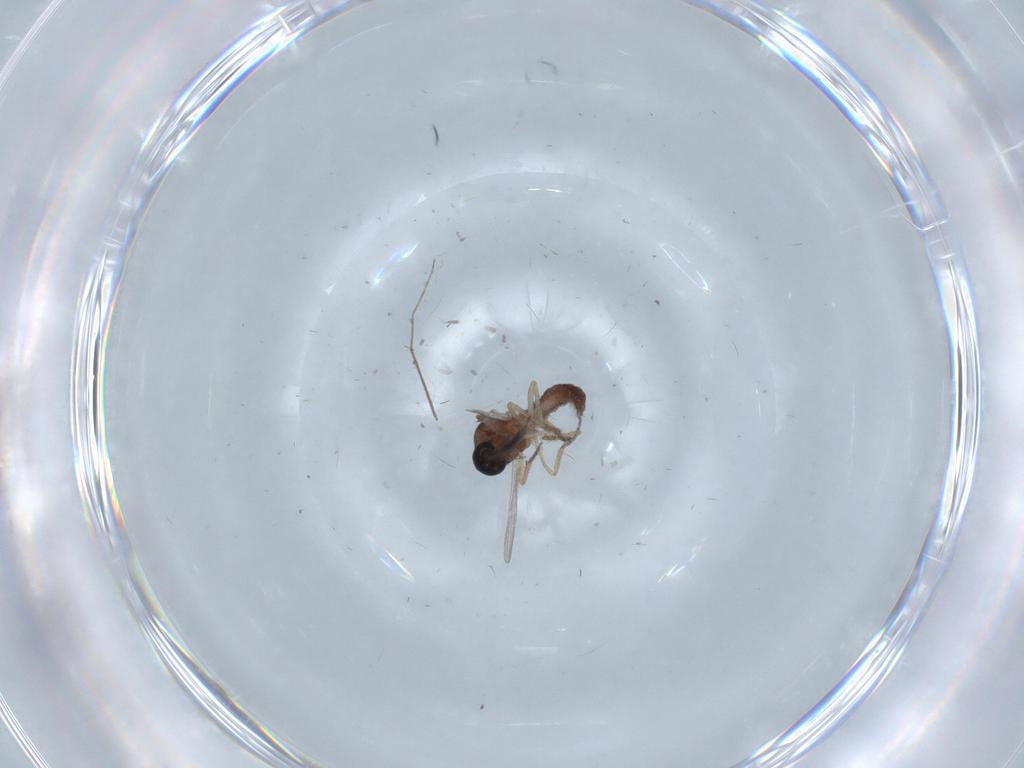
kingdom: Animalia
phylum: Arthropoda
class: Insecta
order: Diptera
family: Chironomidae
